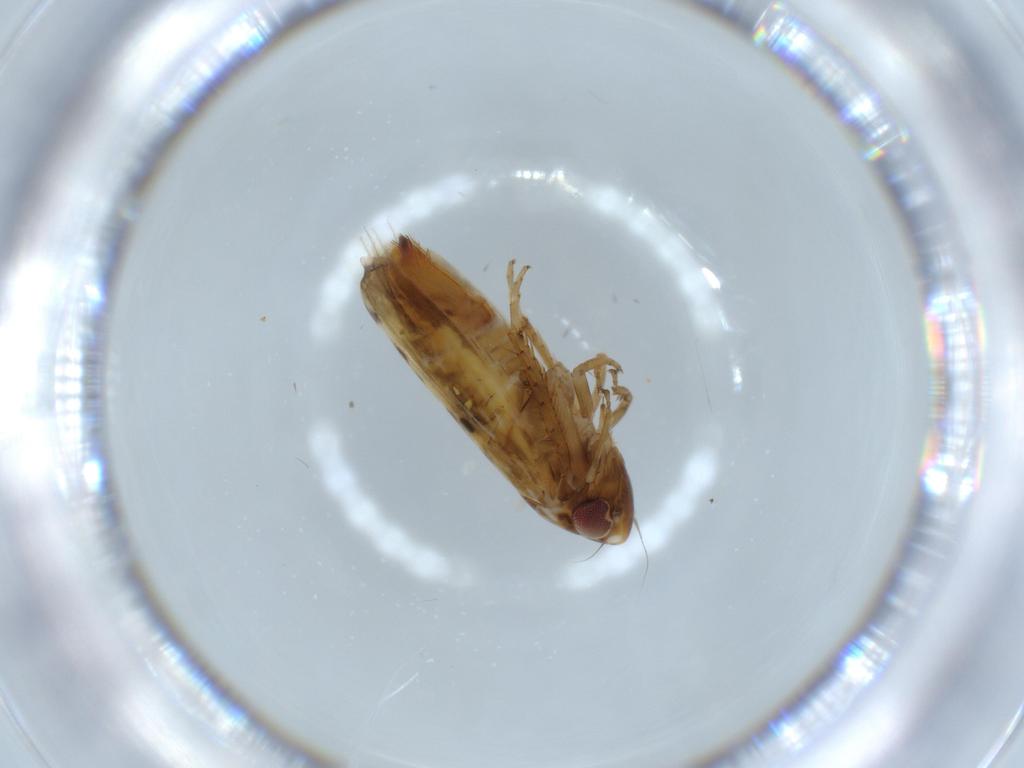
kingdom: Animalia
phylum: Arthropoda
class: Insecta
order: Hemiptera
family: Cicadellidae
